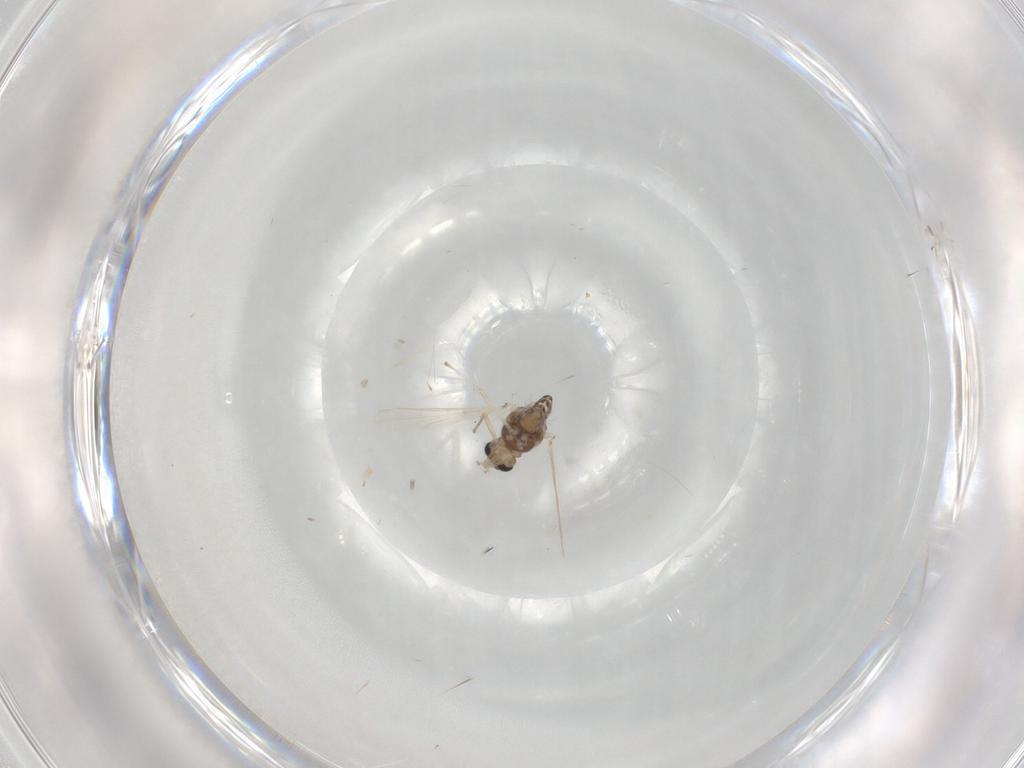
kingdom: Animalia
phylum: Arthropoda
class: Insecta
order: Diptera
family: Chironomidae
